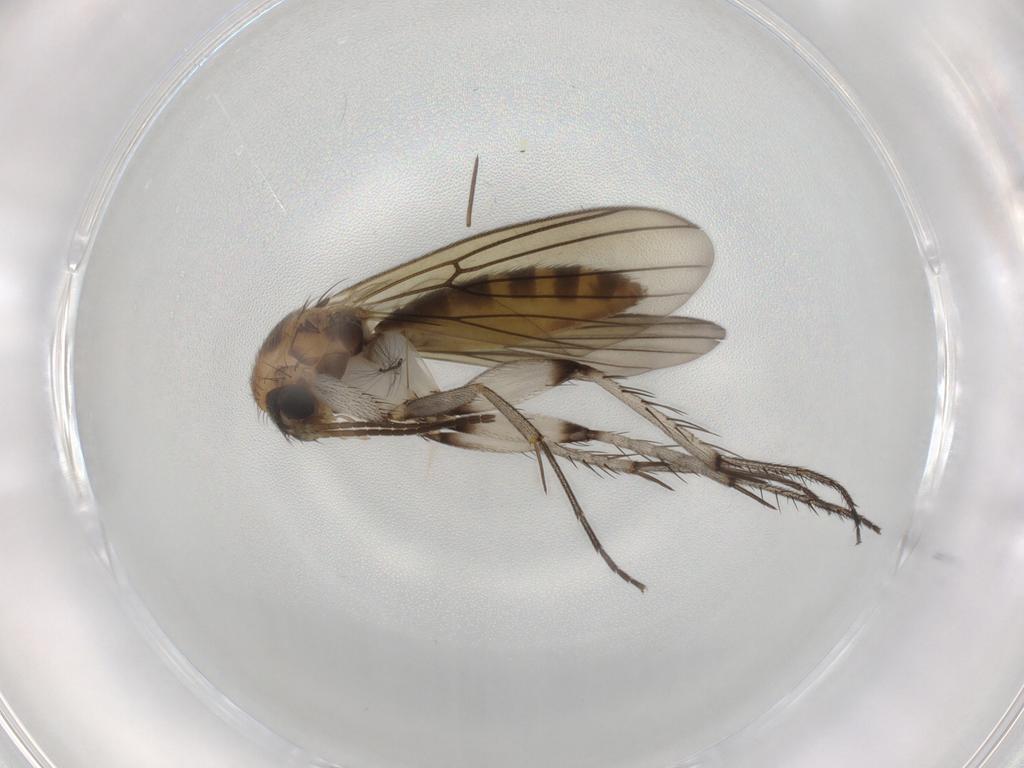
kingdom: Animalia
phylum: Arthropoda
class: Insecta
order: Diptera
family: Mycetophilidae
